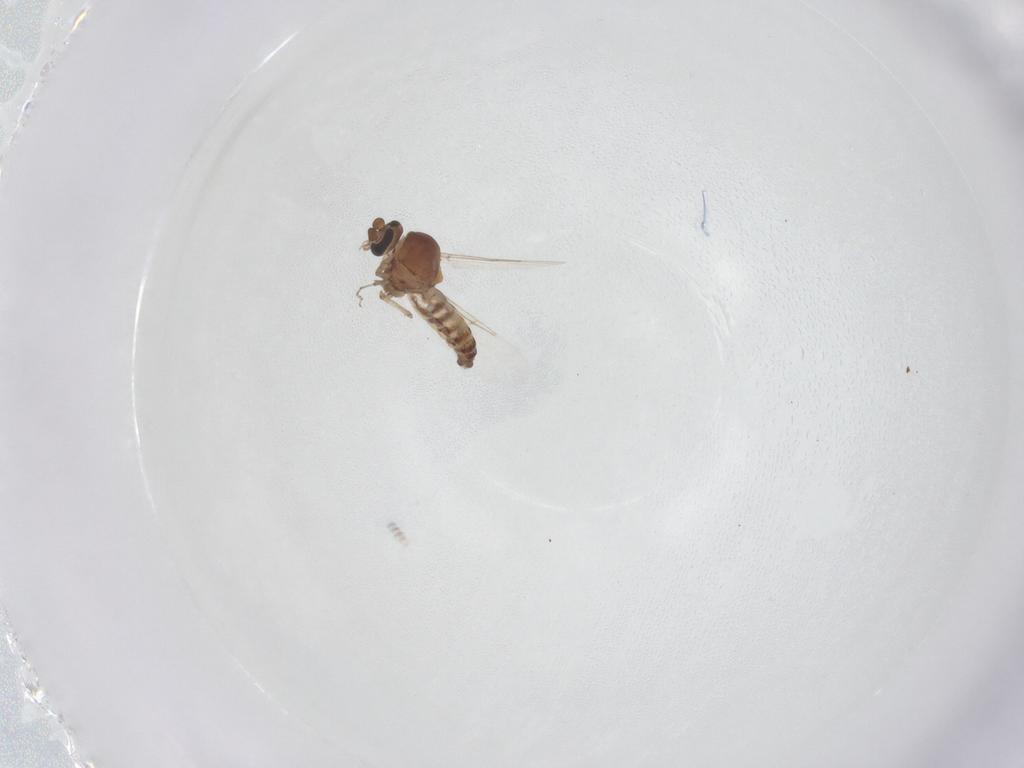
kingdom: Animalia
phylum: Arthropoda
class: Insecta
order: Diptera
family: Ceratopogonidae
